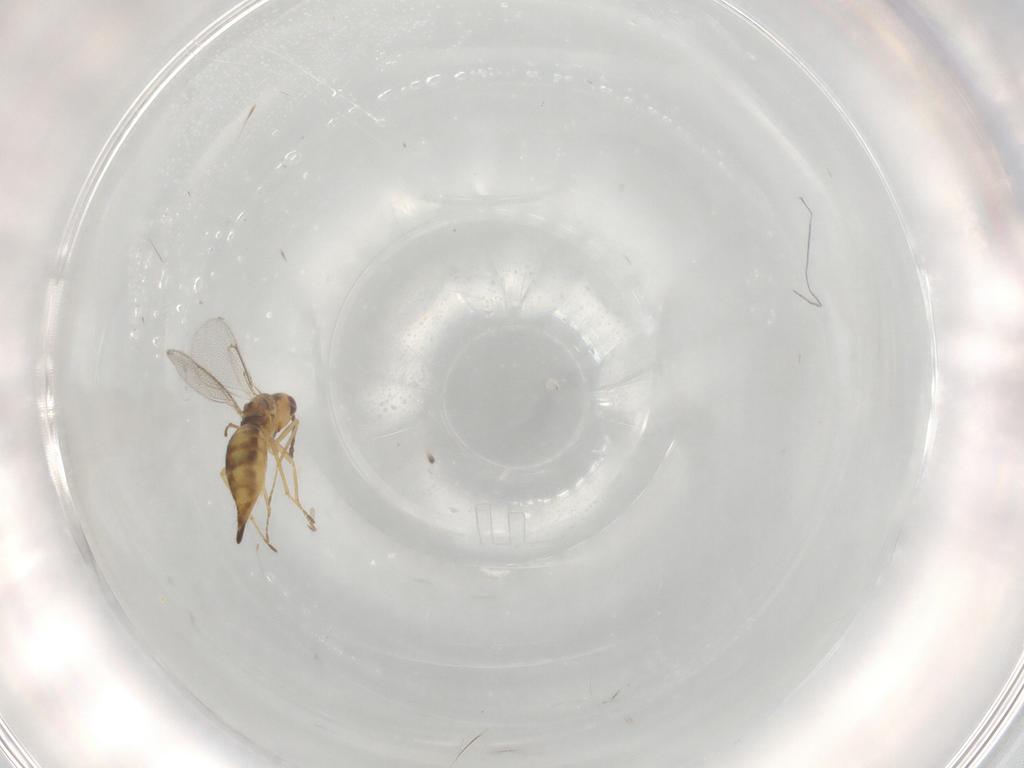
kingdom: Animalia
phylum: Arthropoda
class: Insecta
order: Hymenoptera
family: Eulophidae
